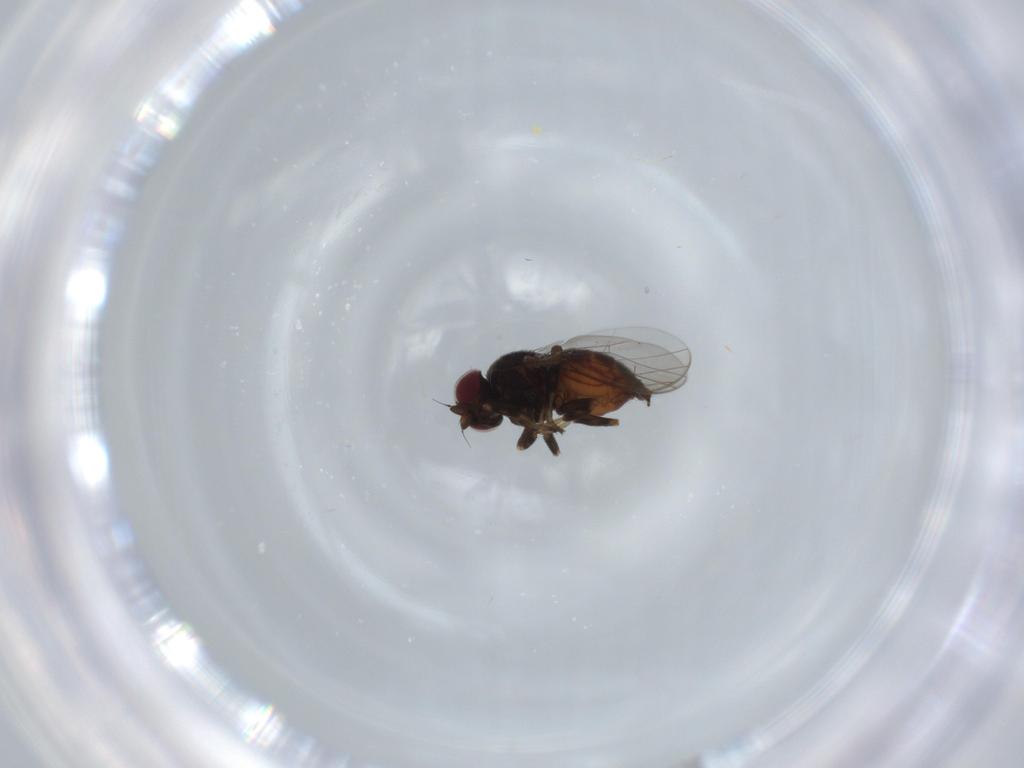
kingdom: Animalia
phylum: Arthropoda
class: Insecta
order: Diptera
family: Chloropidae
